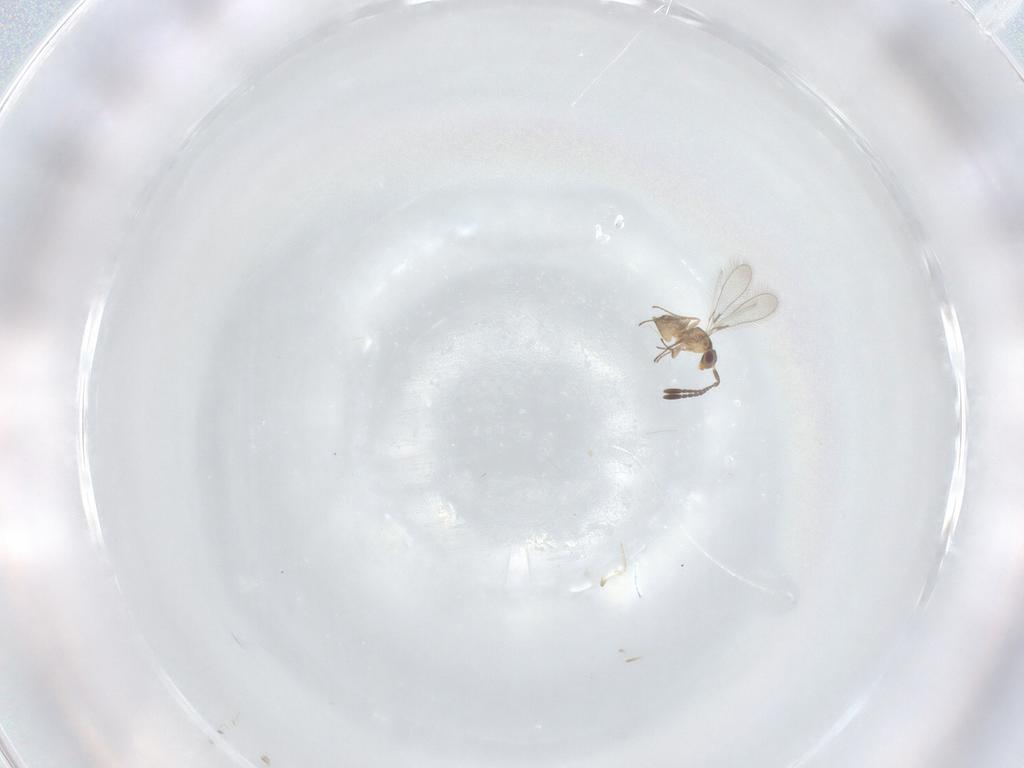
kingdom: Animalia
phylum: Arthropoda
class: Insecta
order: Hymenoptera
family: Mymaridae
